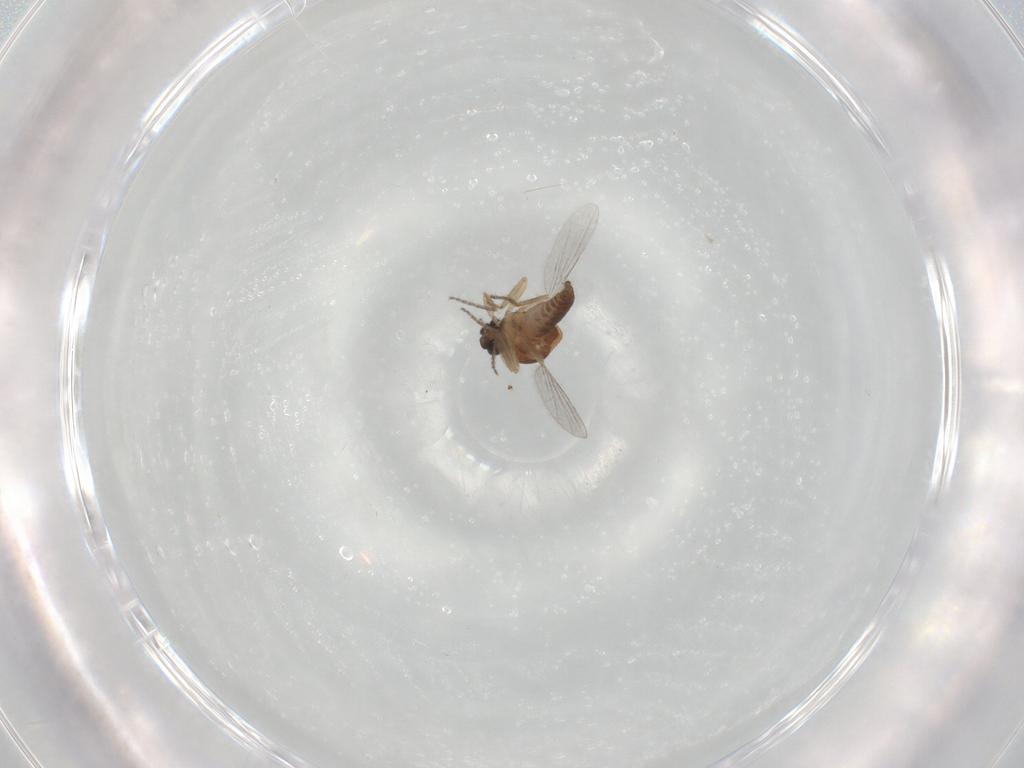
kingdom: Animalia
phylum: Arthropoda
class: Insecta
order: Diptera
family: Ceratopogonidae
